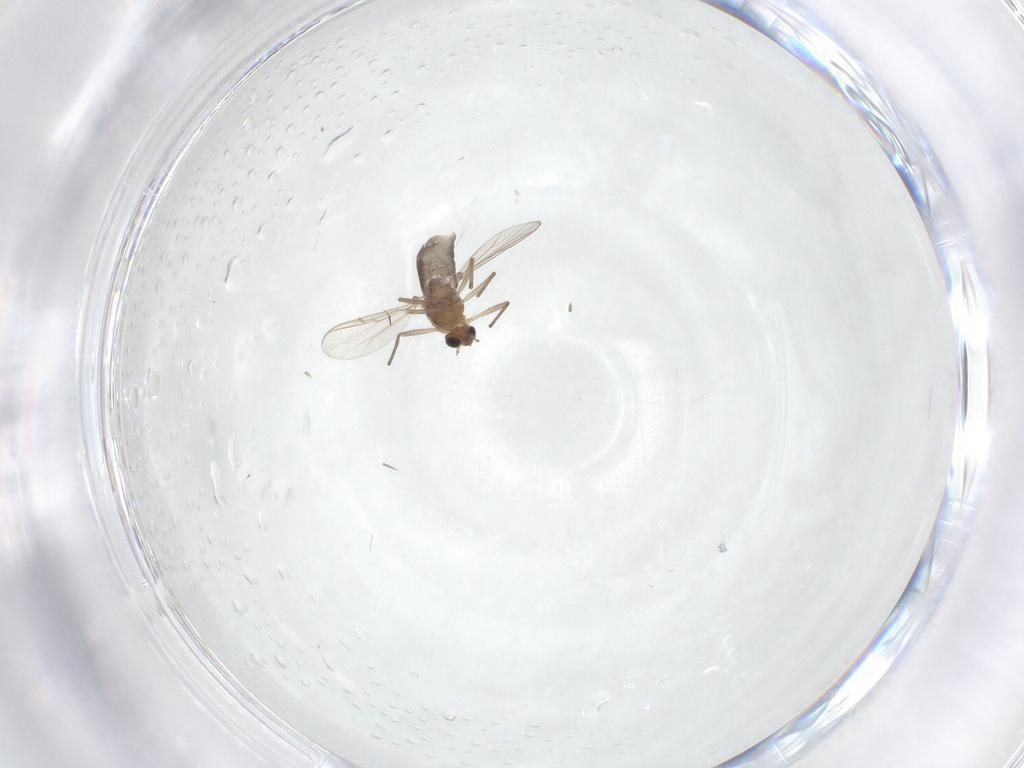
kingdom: Animalia
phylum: Arthropoda
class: Insecta
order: Diptera
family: Chironomidae
